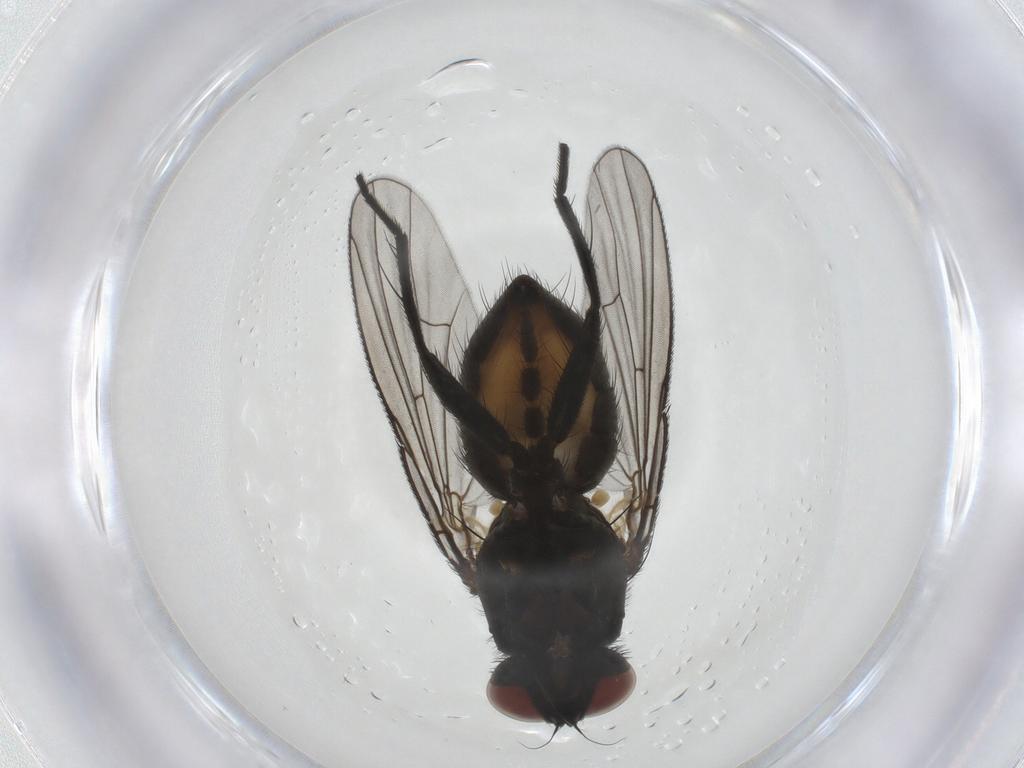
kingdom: Animalia
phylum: Arthropoda
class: Insecta
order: Diptera
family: Muscidae
